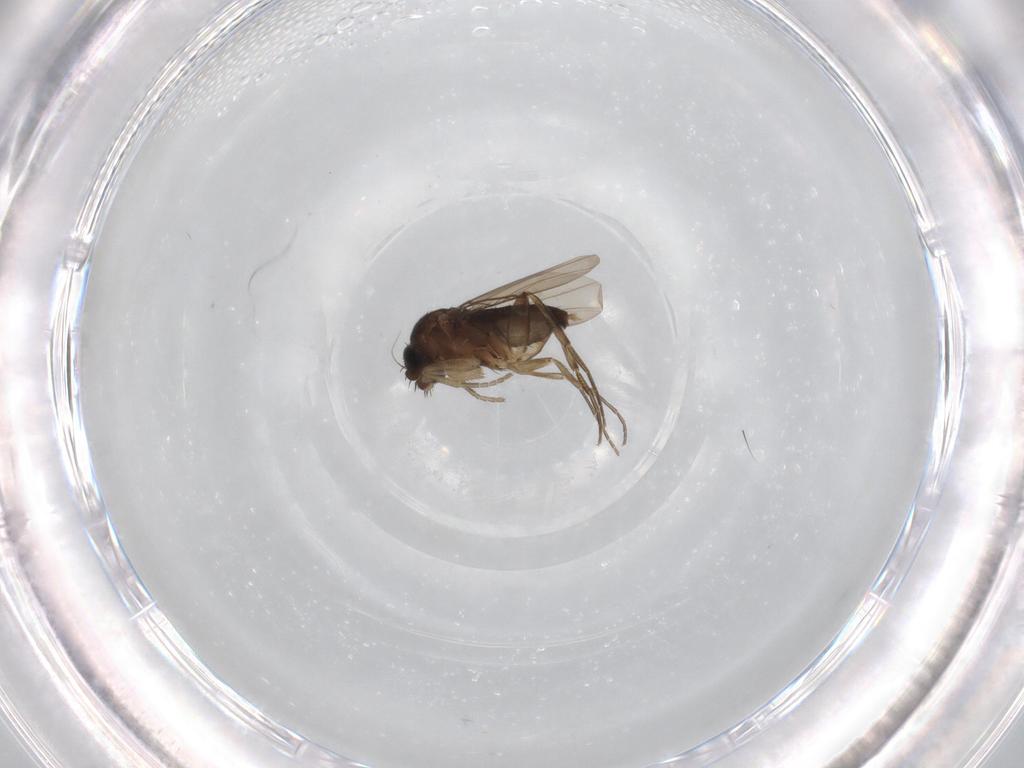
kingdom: Animalia
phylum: Arthropoda
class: Insecta
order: Diptera
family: Phoridae
